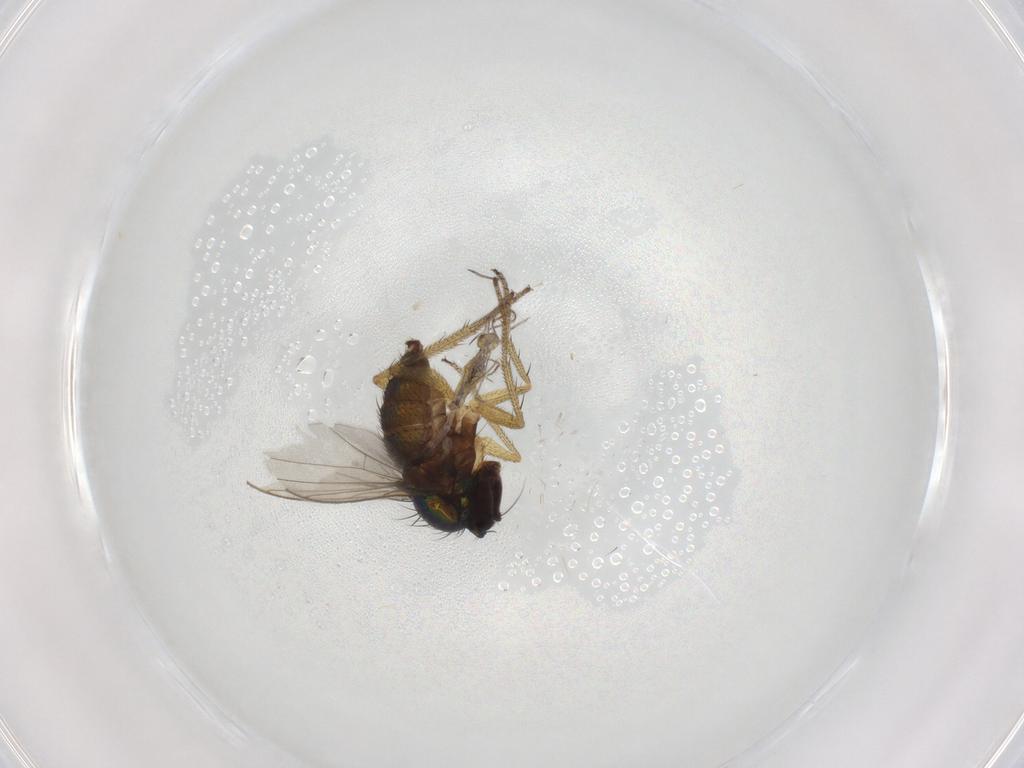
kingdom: Animalia
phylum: Arthropoda
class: Insecta
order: Diptera
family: Dolichopodidae
